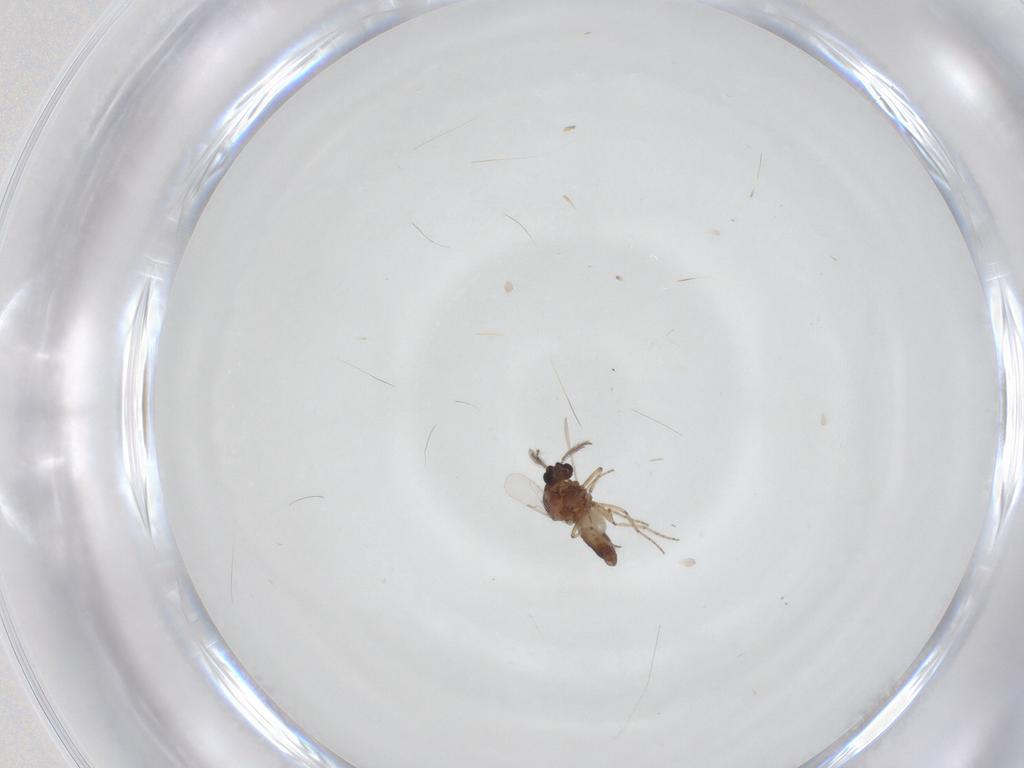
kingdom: Animalia
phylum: Arthropoda
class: Insecta
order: Diptera
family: Ceratopogonidae
